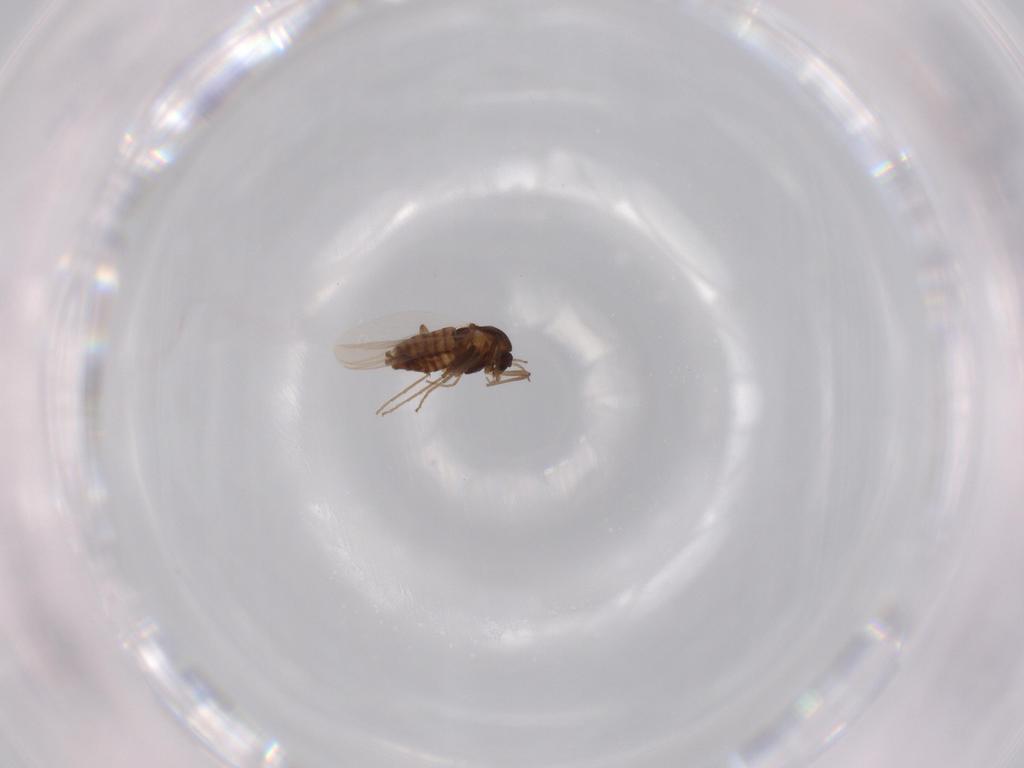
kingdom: Animalia
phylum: Arthropoda
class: Insecta
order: Diptera
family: Chironomidae
